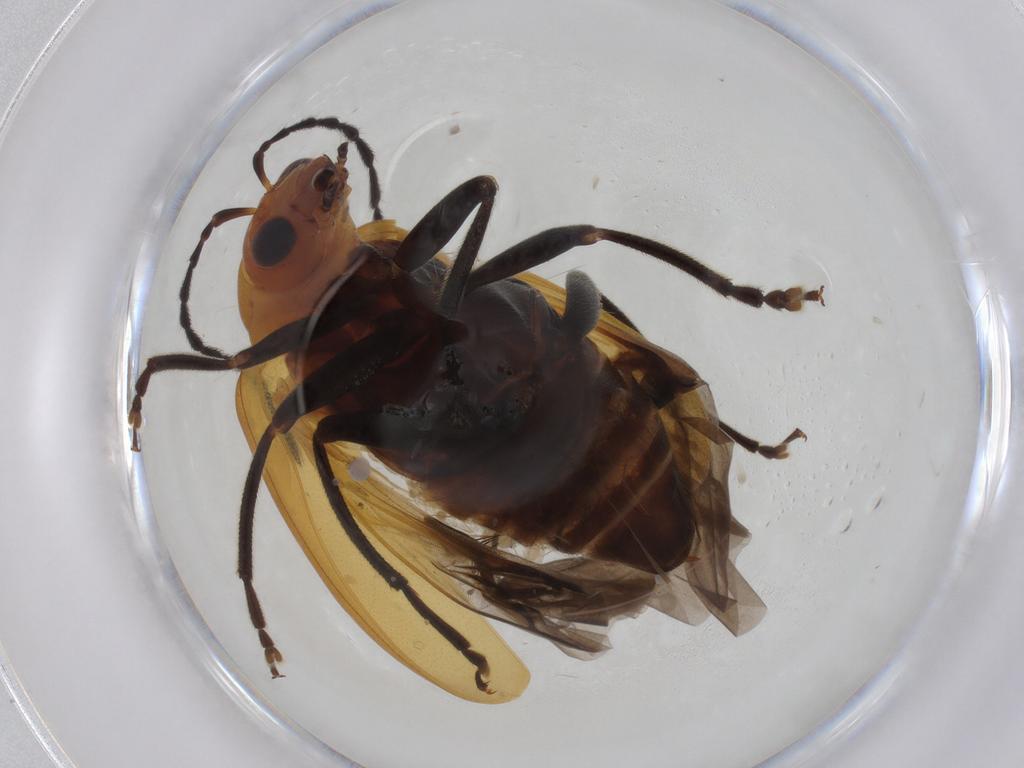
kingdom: Animalia
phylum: Arthropoda
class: Insecta
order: Coleoptera
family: Chrysomelidae
